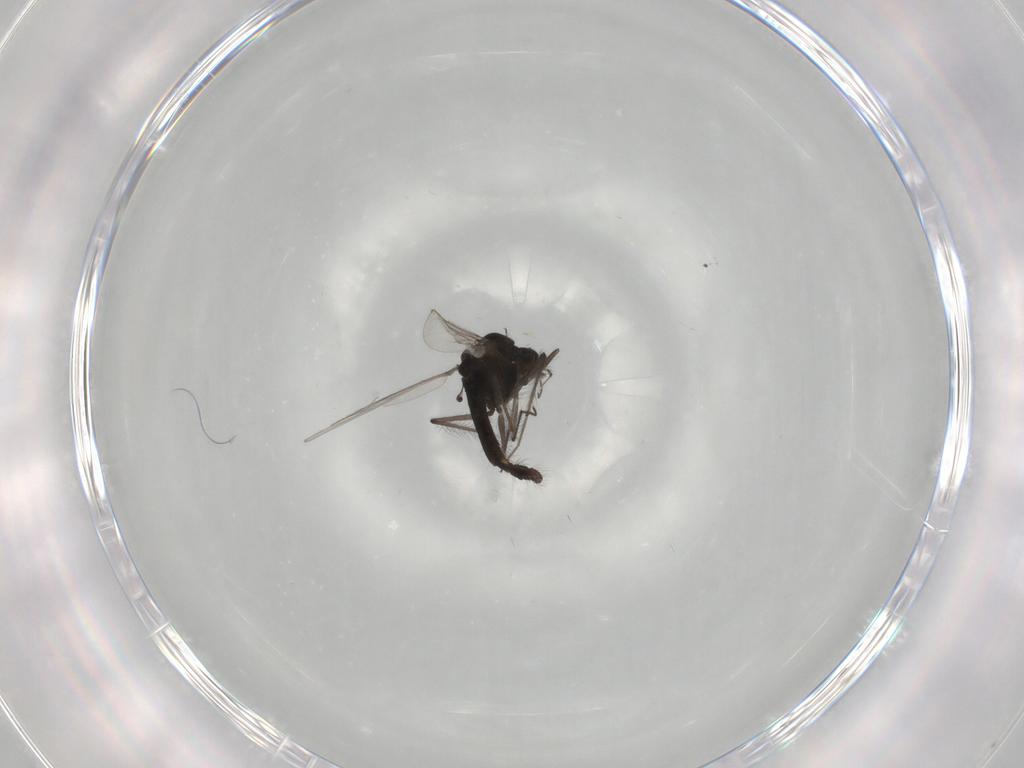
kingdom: Animalia
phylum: Arthropoda
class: Insecta
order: Diptera
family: Chironomidae
